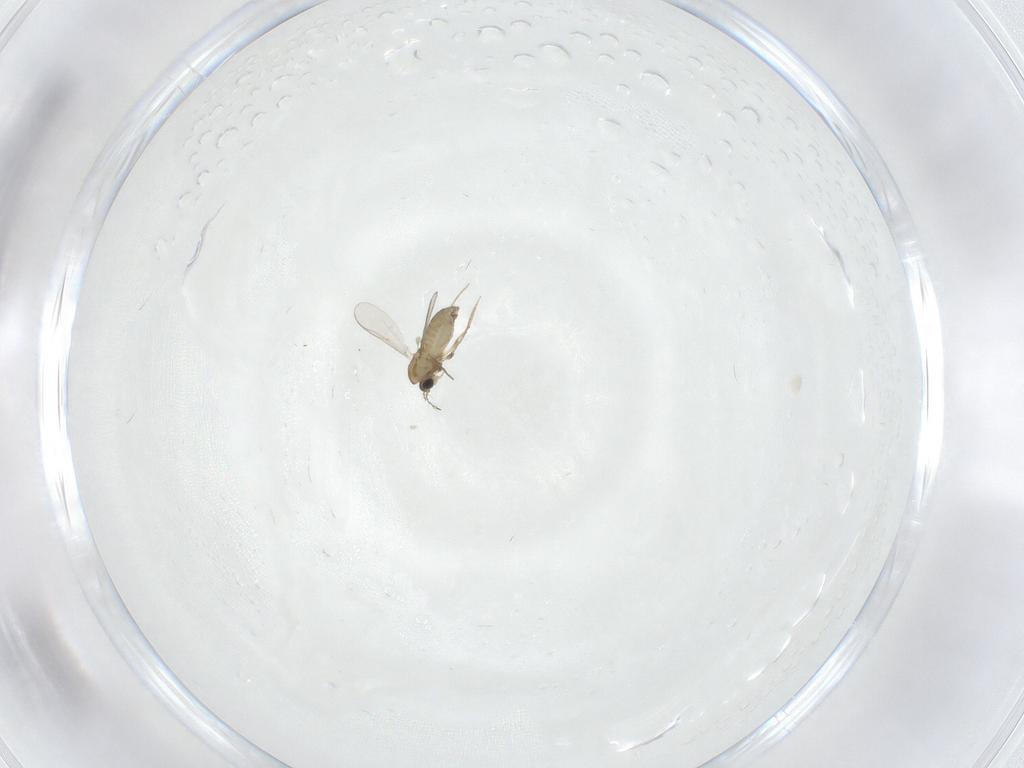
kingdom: Animalia
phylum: Arthropoda
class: Insecta
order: Diptera
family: Chironomidae
